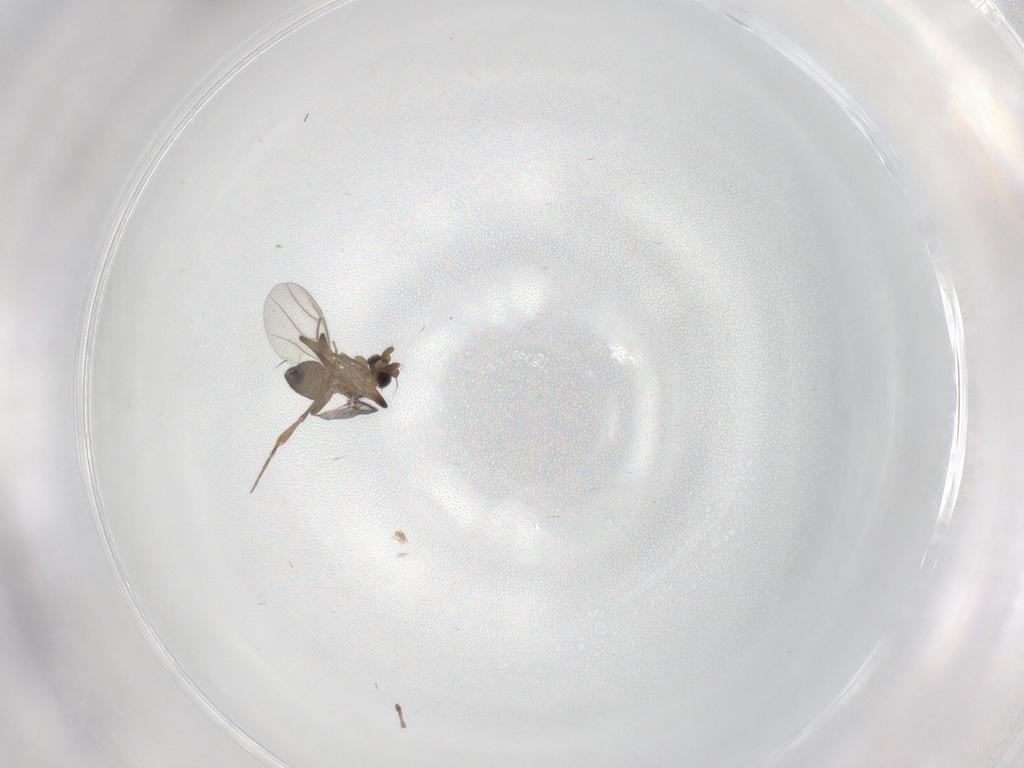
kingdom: Animalia
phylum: Arthropoda
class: Insecta
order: Diptera
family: Phoridae
